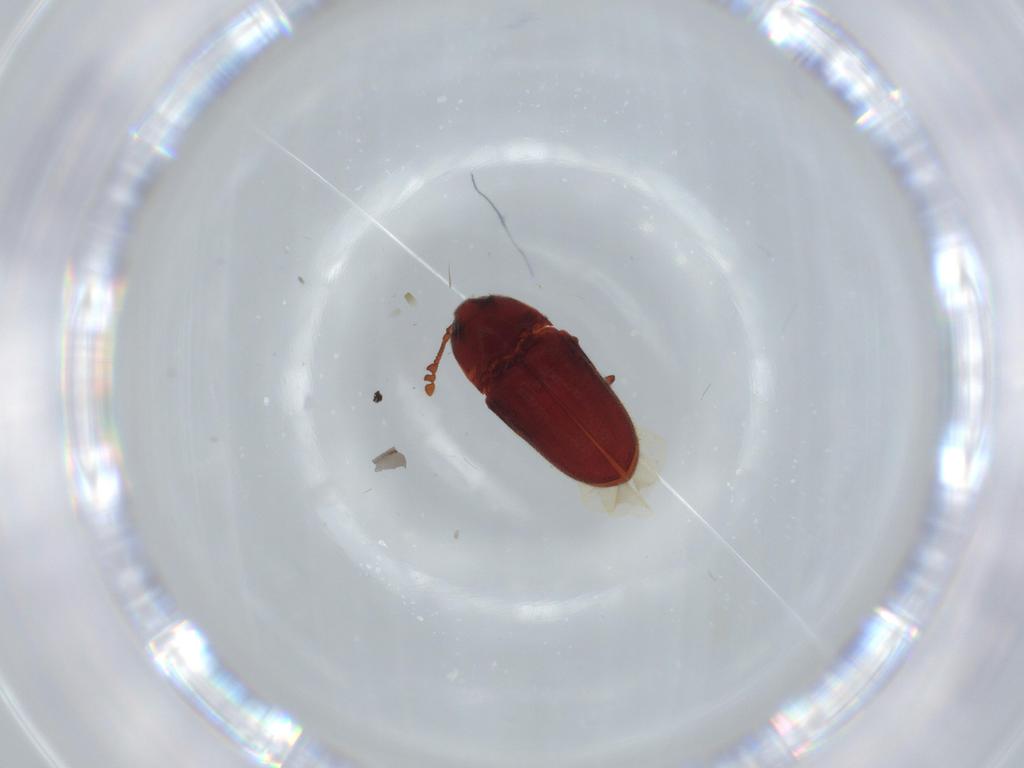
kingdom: Animalia
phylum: Arthropoda
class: Insecta
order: Coleoptera
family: Throscidae
